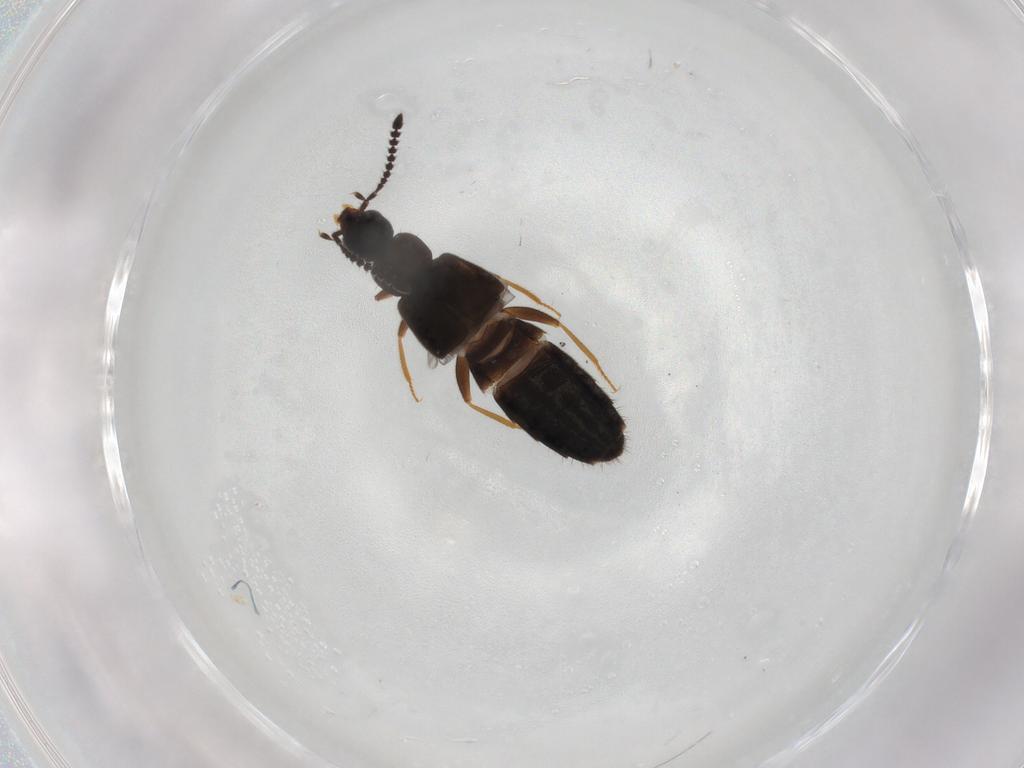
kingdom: Animalia
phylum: Arthropoda
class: Insecta
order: Coleoptera
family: Staphylinidae
